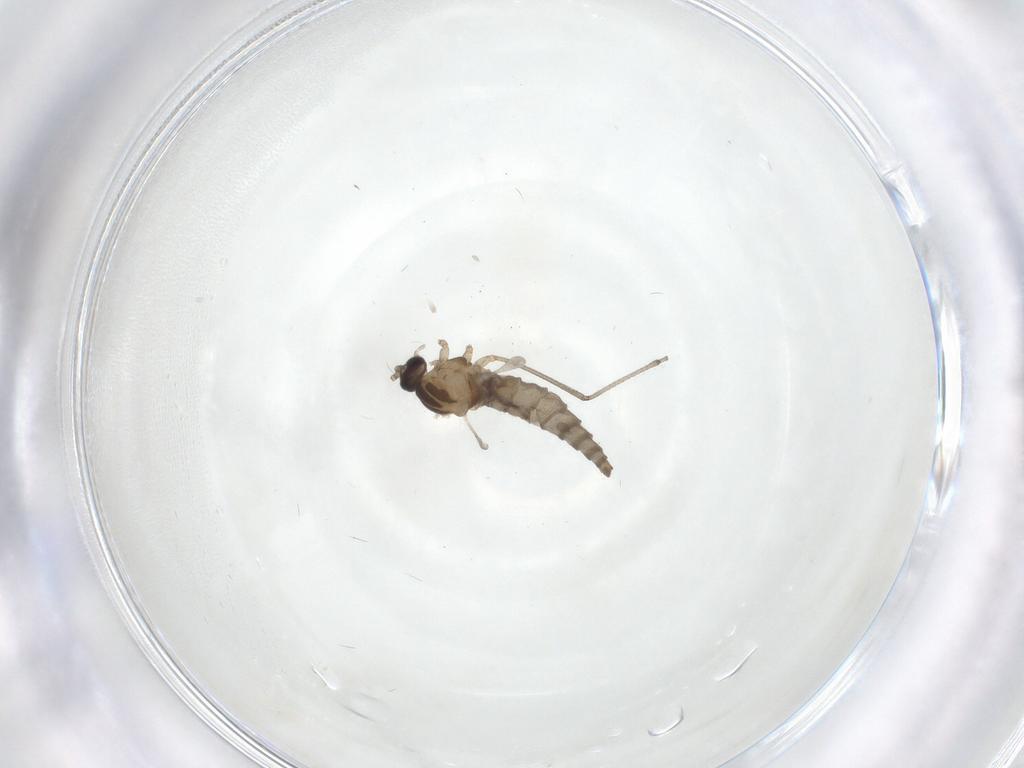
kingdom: Animalia
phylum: Arthropoda
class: Insecta
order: Diptera
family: Cecidomyiidae
